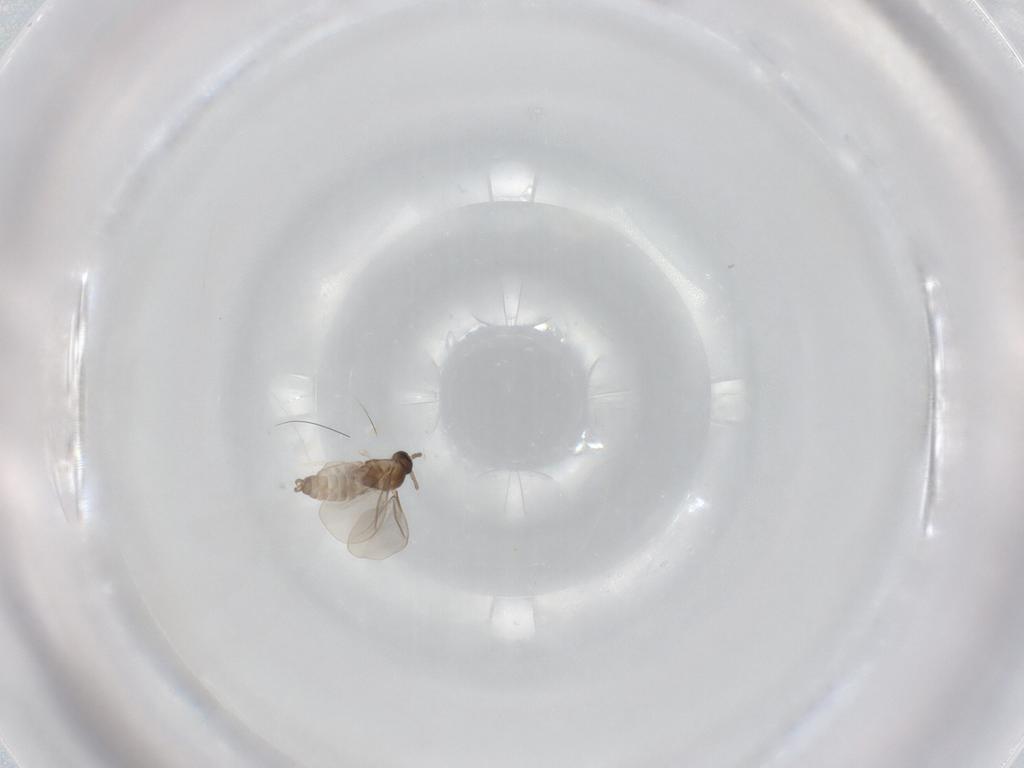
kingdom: Animalia
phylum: Arthropoda
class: Insecta
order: Diptera
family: Cecidomyiidae
